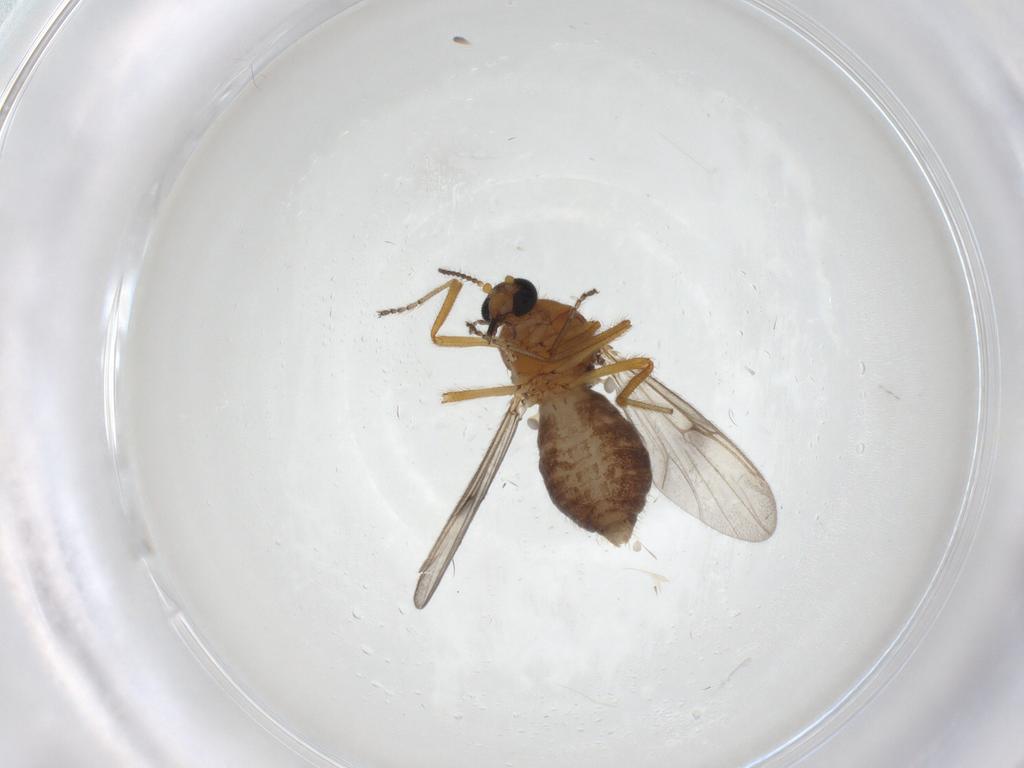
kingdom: Animalia
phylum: Arthropoda
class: Insecta
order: Diptera
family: Ceratopogonidae
